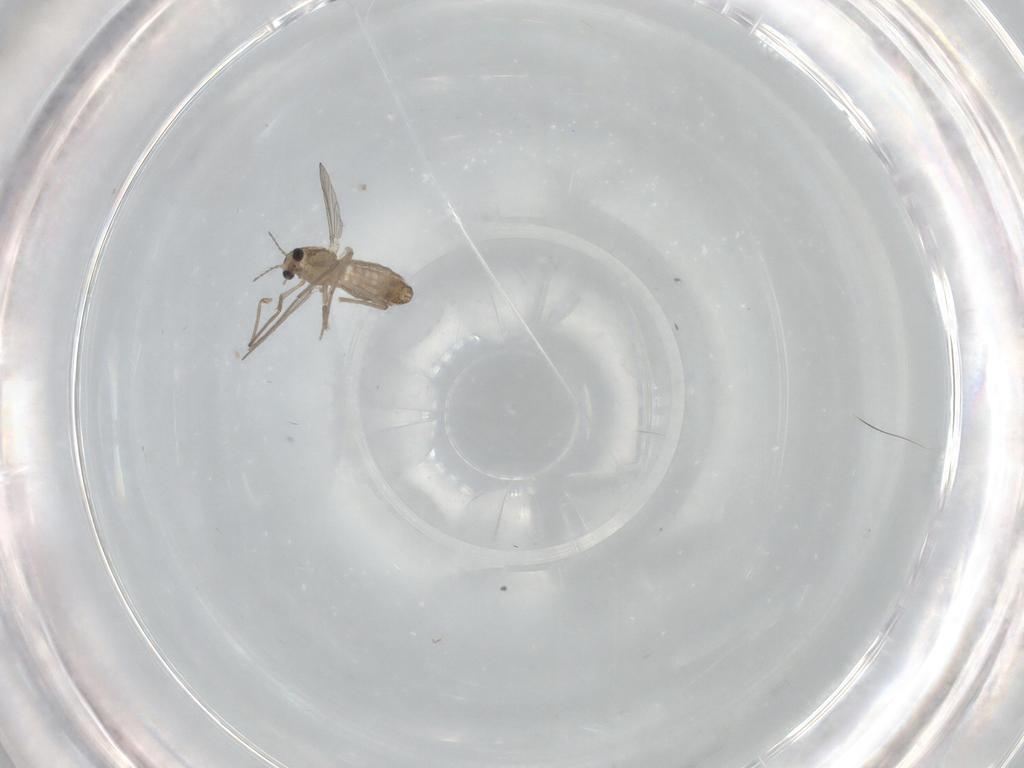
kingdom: Animalia
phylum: Arthropoda
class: Insecta
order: Diptera
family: Chironomidae
